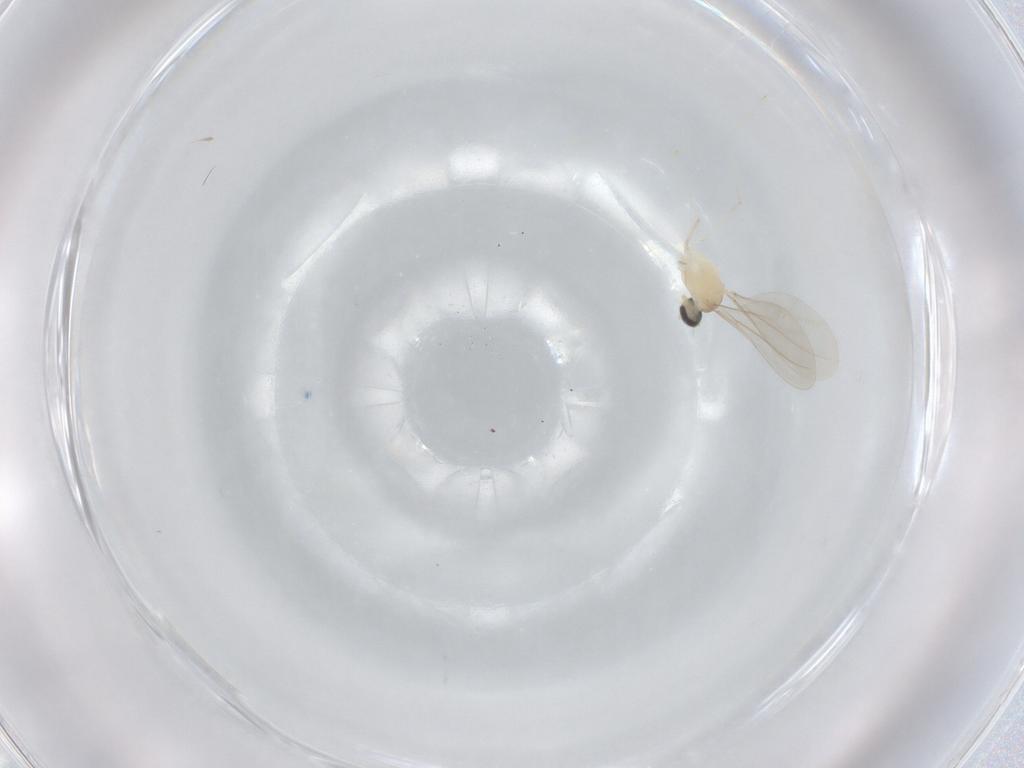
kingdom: Animalia
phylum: Arthropoda
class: Insecta
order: Diptera
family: Cecidomyiidae
